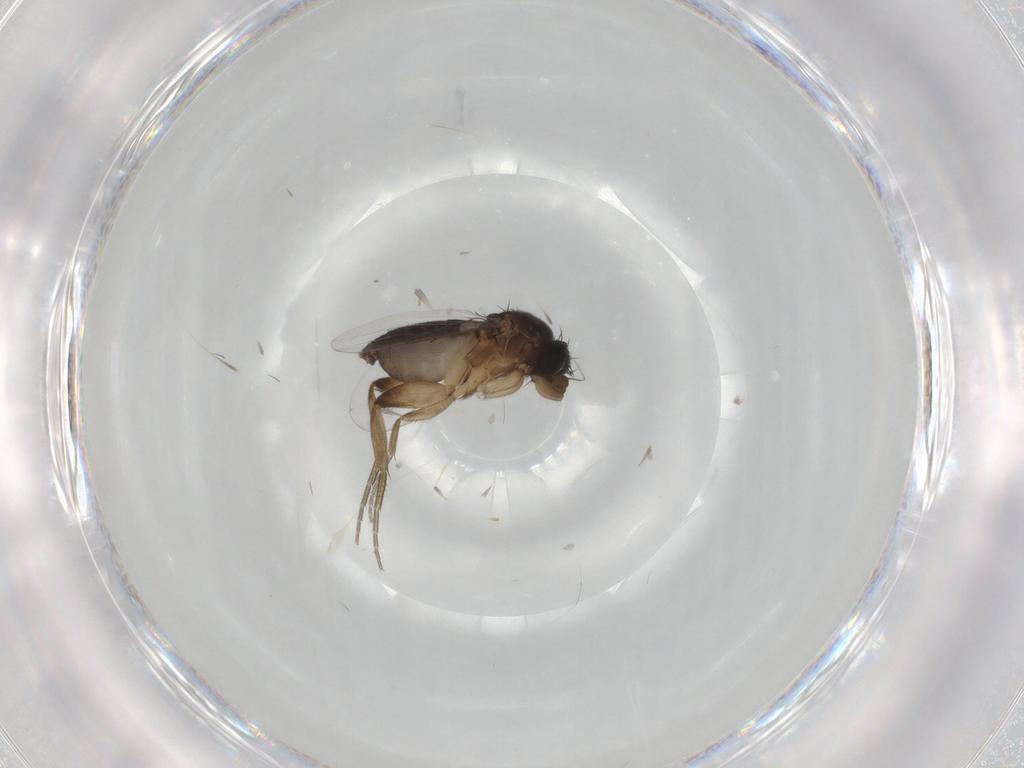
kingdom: Animalia
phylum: Arthropoda
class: Insecta
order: Diptera
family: Phoridae
